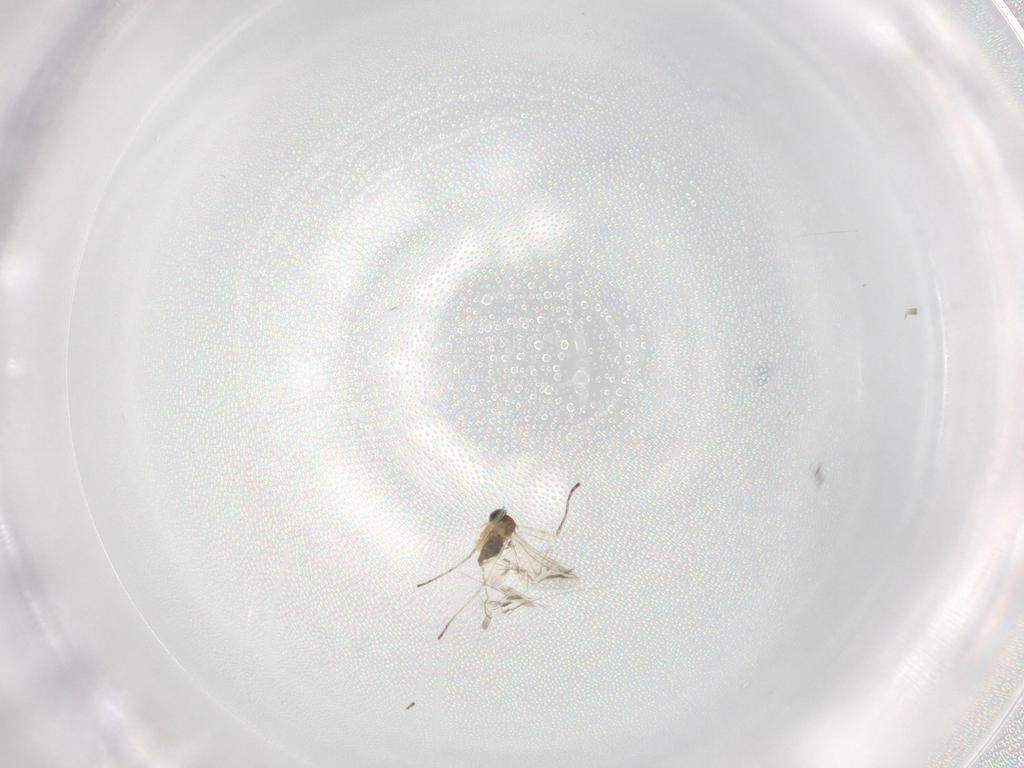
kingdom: Animalia
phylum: Arthropoda
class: Insecta
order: Diptera
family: Cecidomyiidae
